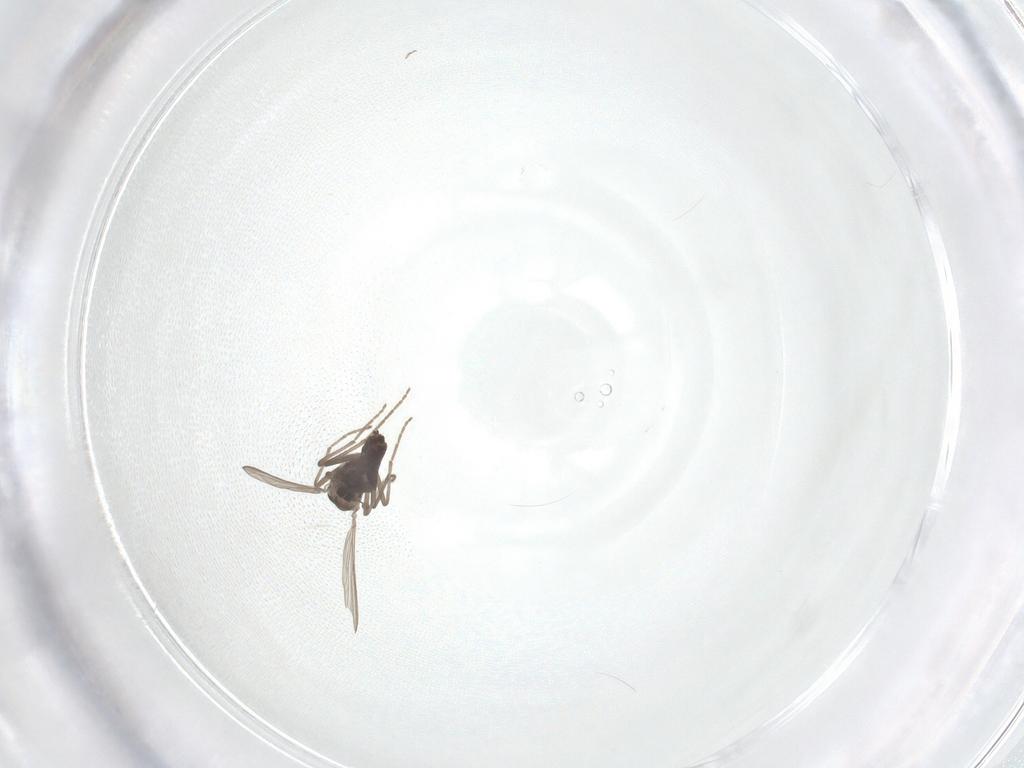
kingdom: Animalia
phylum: Arthropoda
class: Insecta
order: Diptera
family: Chironomidae
